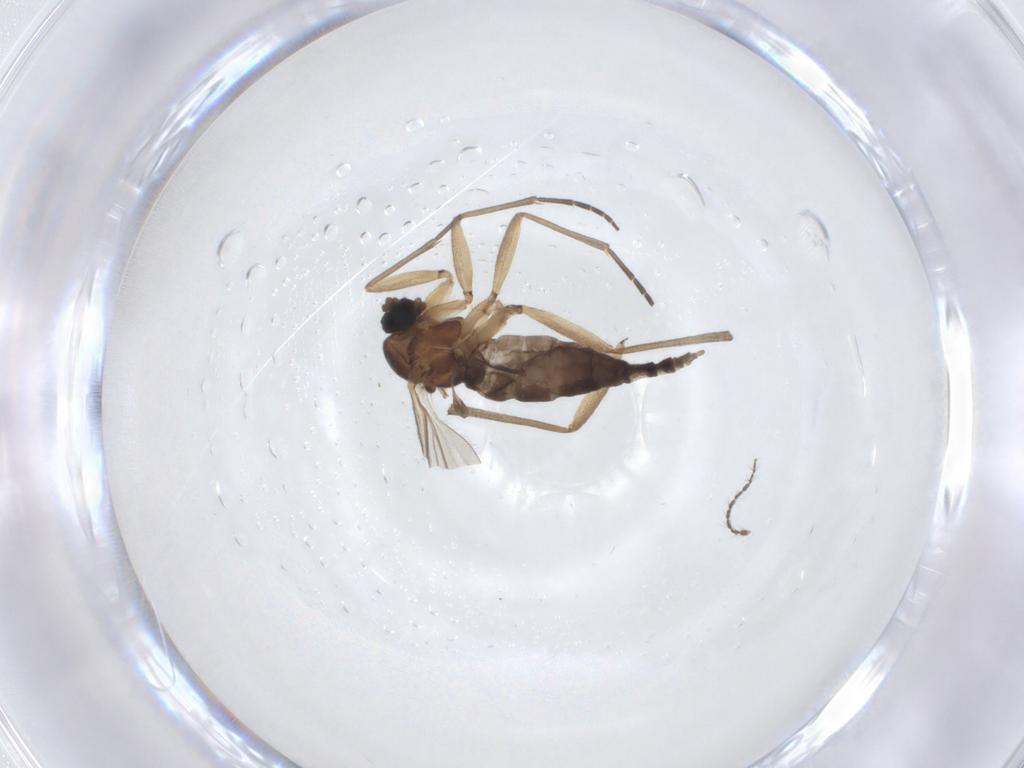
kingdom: Animalia
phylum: Arthropoda
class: Insecta
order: Diptera
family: Sciaridae
